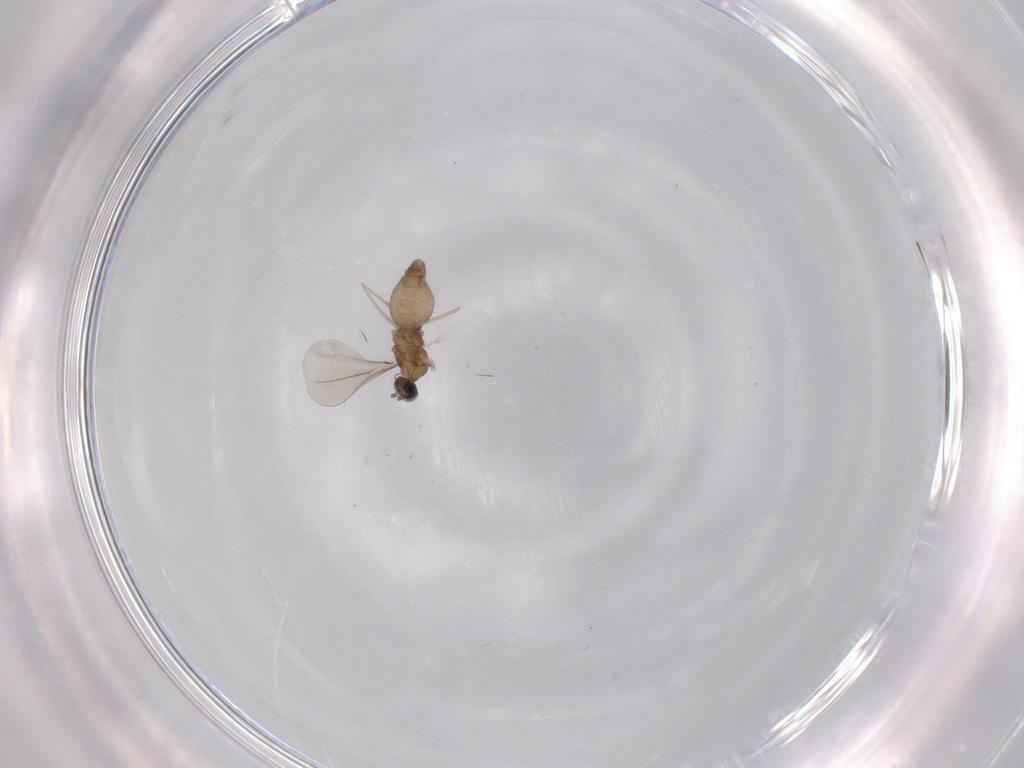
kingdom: Animalia
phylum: Arthropoda
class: Insecta
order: Diptera
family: Cecidomyiidae
